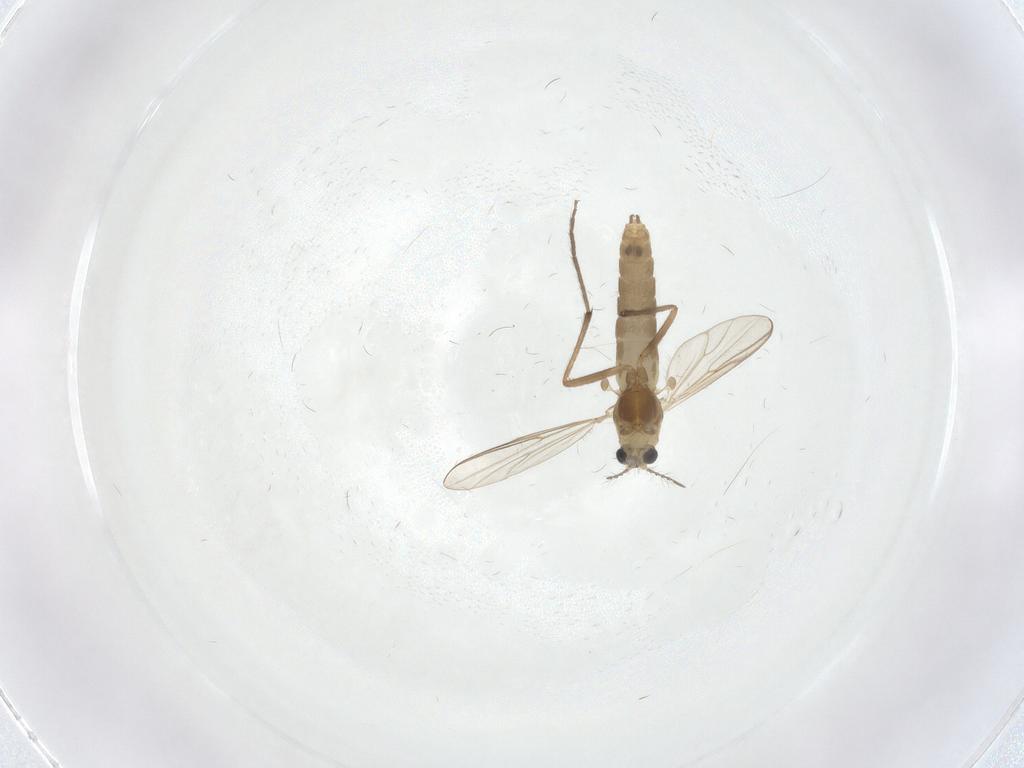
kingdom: Animalia
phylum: Arthropoda
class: Insecta
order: Diptera
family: Chironomidae
